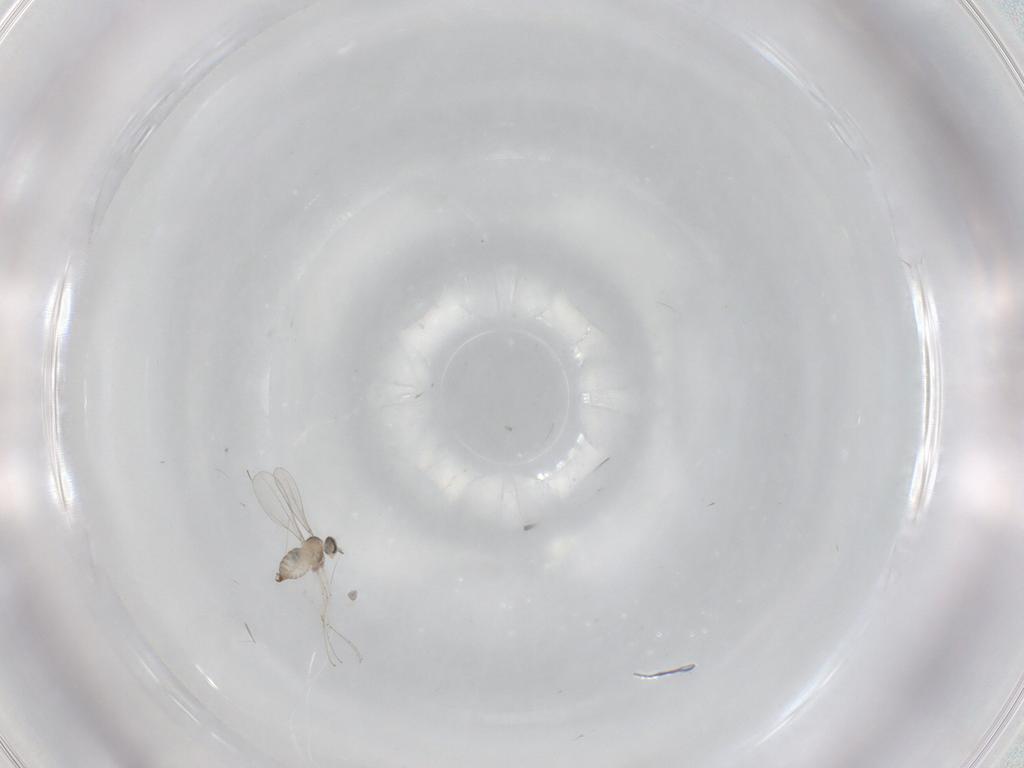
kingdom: Animalia
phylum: Arthropoda
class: Insecta
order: Diptera
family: Cecidomyiidae
